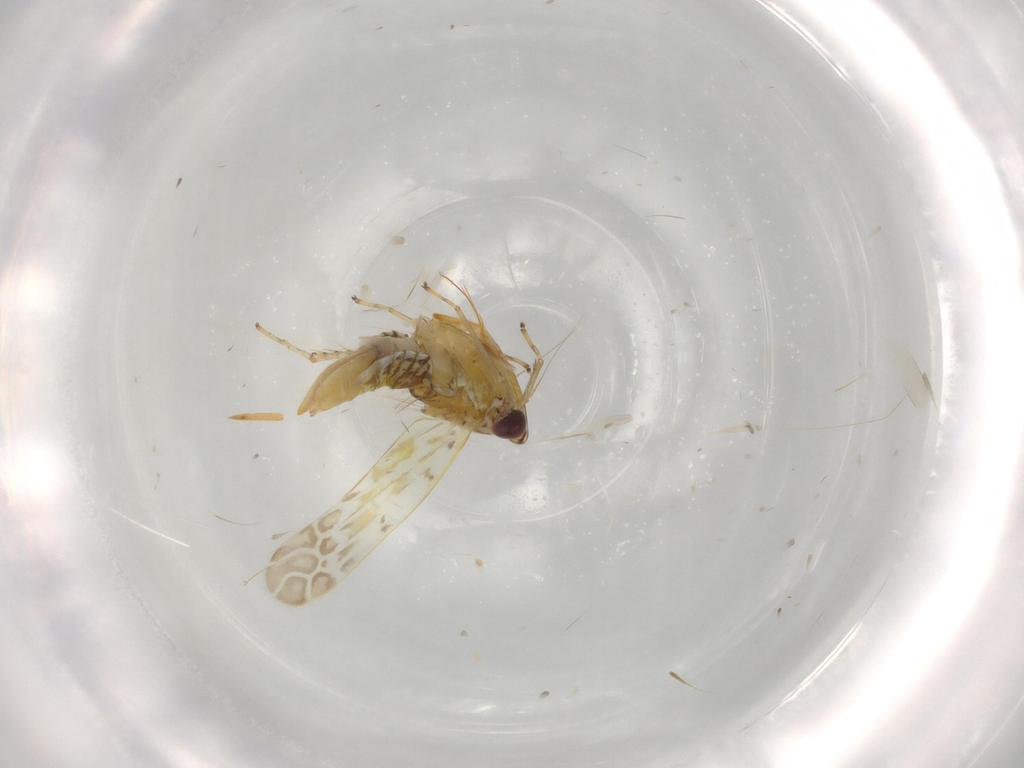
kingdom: Animalia
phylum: Arthropoda
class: Insecta
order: Hemiptera
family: Cicadellidae
